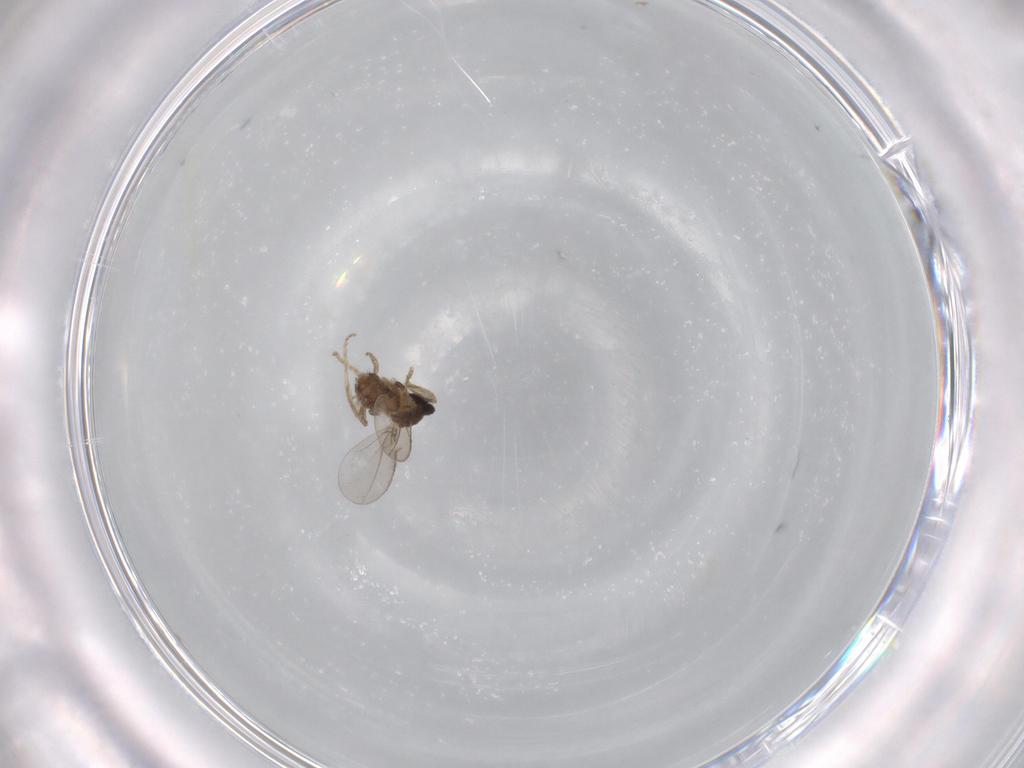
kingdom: Animalia
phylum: Arthropoda
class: Insecta
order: Diptera
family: Cecidomyiidae
